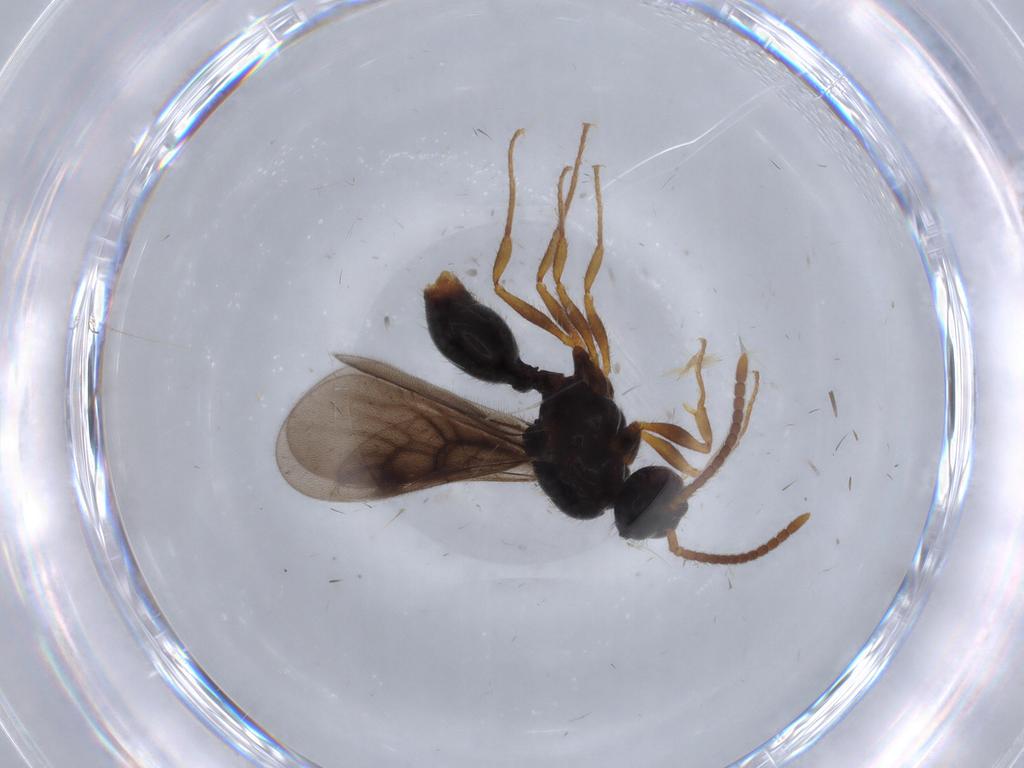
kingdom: Animalia
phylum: Arthropoda
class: Insecta
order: Hymenoptera
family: Formicidae
